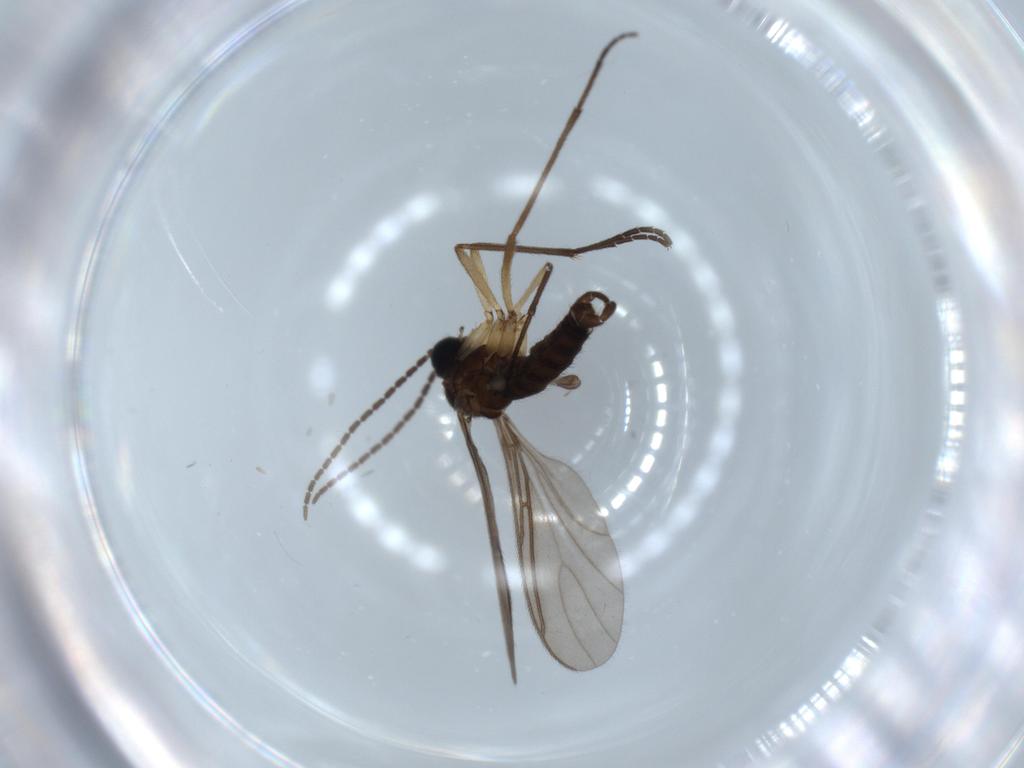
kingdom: Animalia
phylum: Arthropoda
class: Insecta
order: Diptera
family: Sciaridae
